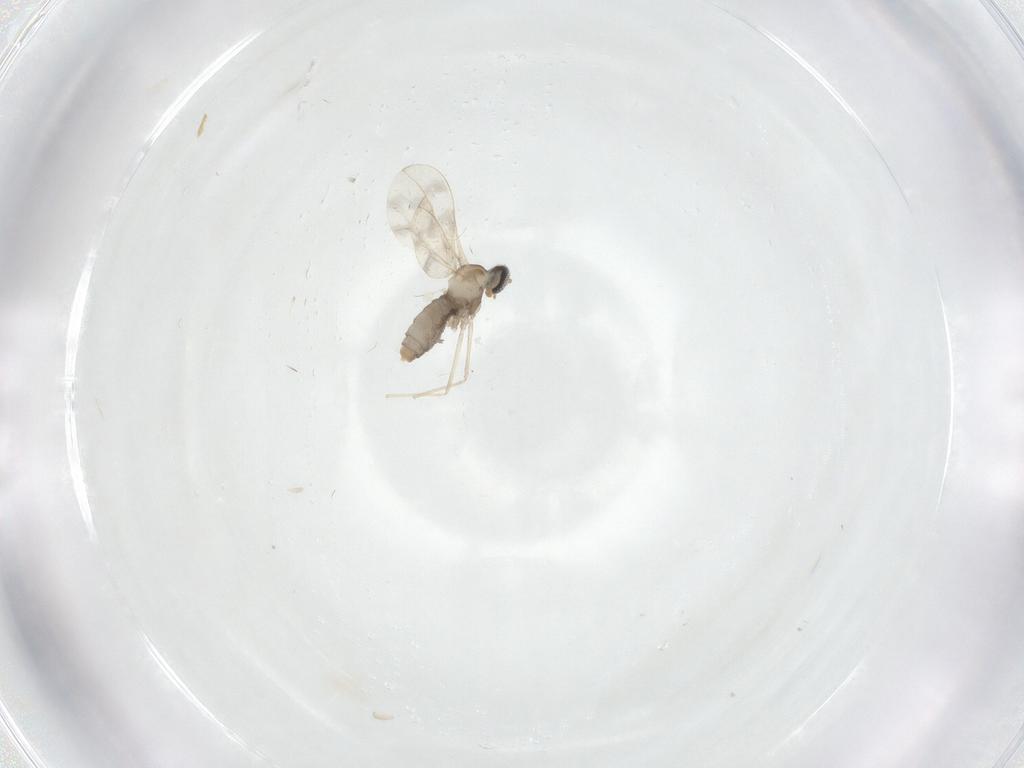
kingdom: Animalia
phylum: Arthropoda
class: Insecta
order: Diptera
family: Cecidomyiidae
